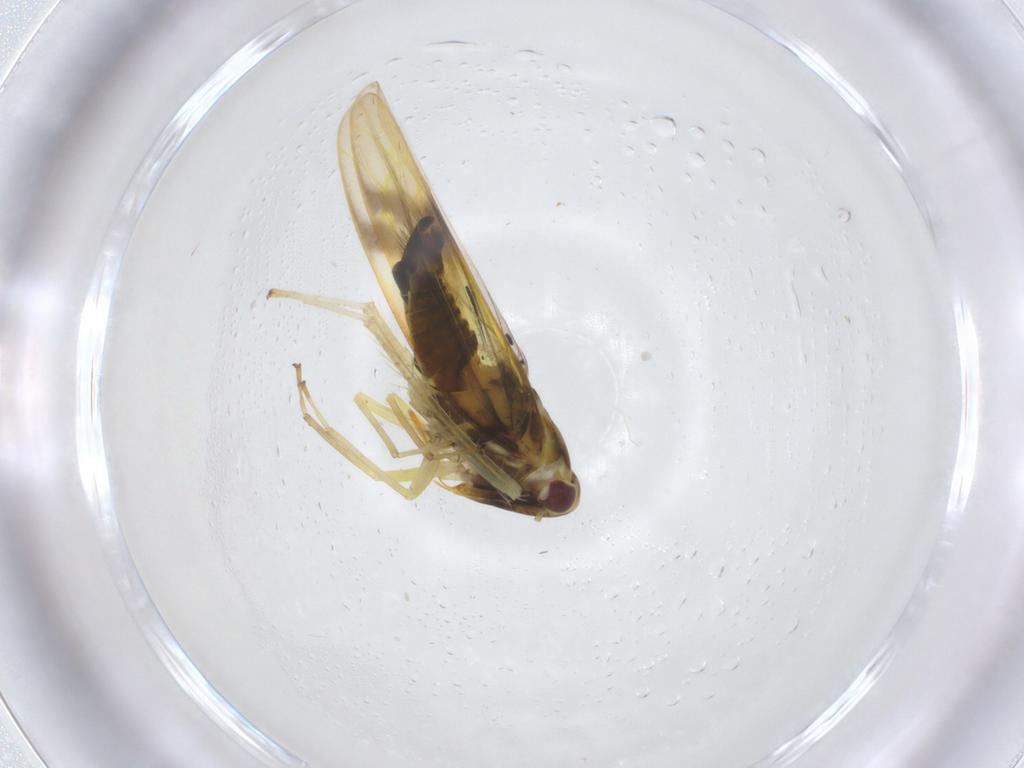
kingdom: Animalia
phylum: Arthropoda
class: Insecta
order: Hemiptera
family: Cicadellidae
